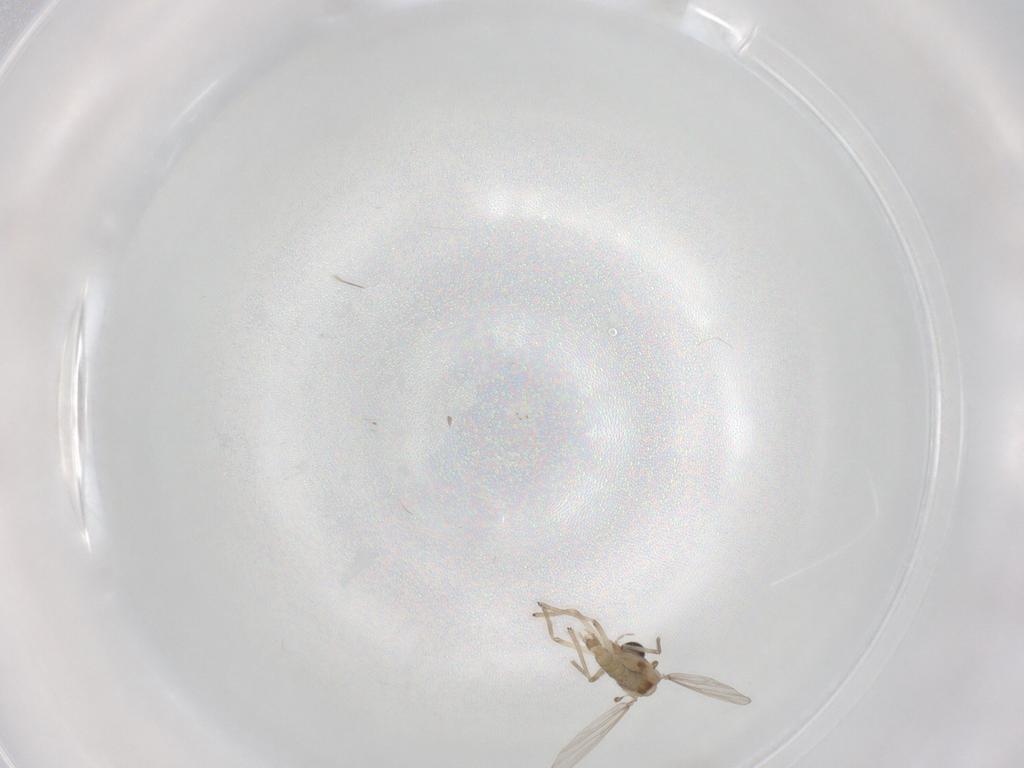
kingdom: Animalia
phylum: Arthropoda
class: Insecta
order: Diptera
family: Chironomidae
